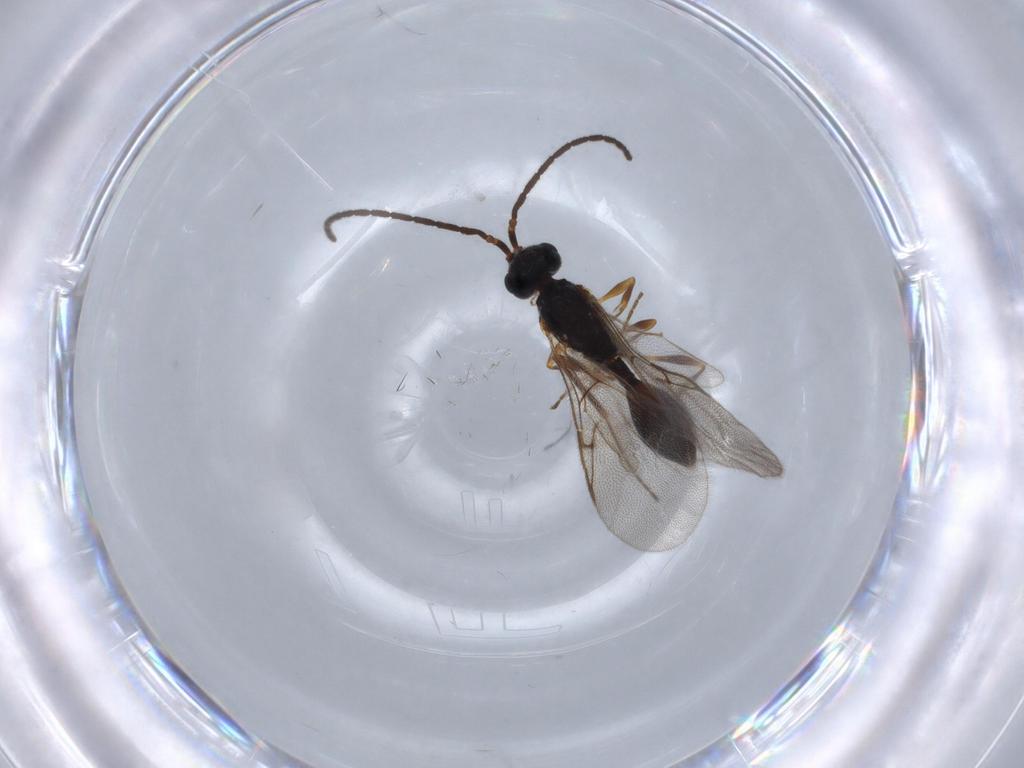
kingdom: Animalia
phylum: Arthropoda
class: Insecta
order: Hymenoptera
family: Diapriidae
